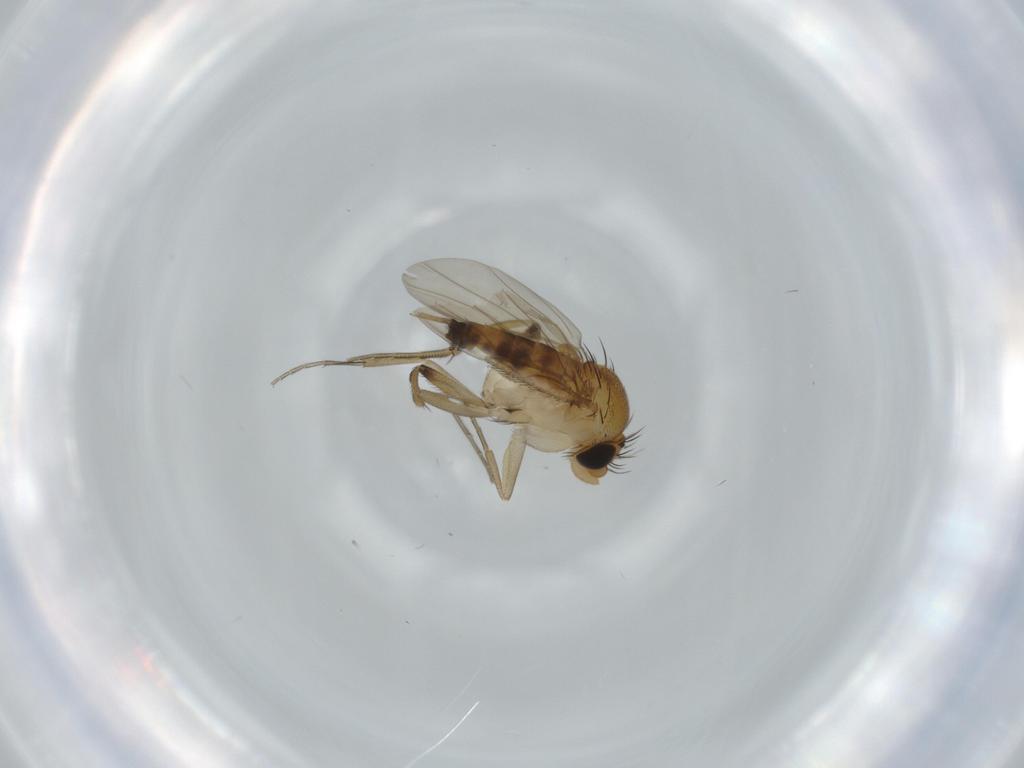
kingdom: Animalia
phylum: Arthropoda
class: Insecta
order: Diptera
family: Phoridae
